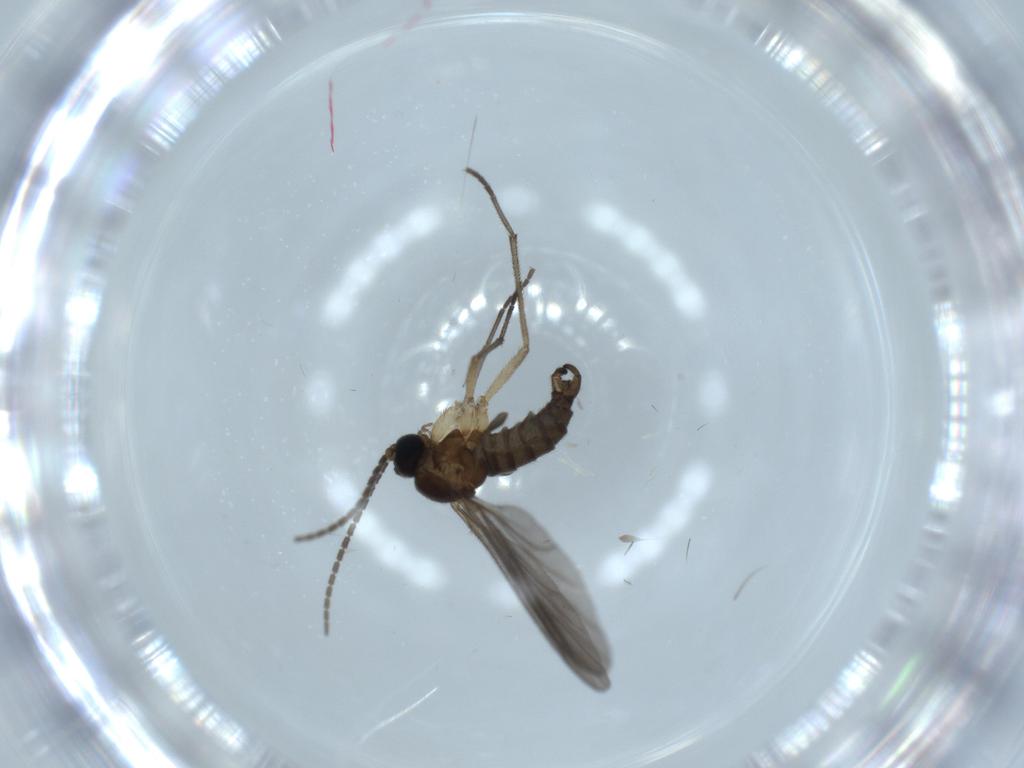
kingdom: Animalia
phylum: Arthropoda
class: Insecta
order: Diptera
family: Sciaridae
